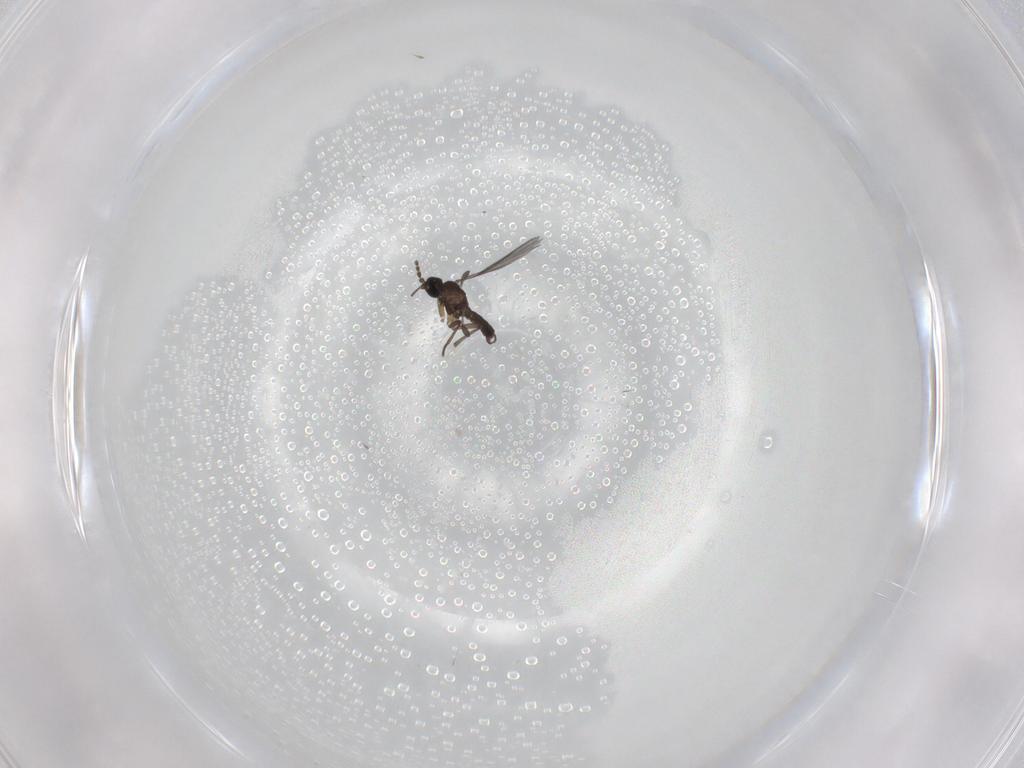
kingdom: Animalia
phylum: Arthropoda
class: Insecta
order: Diptera
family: Sciaridae
